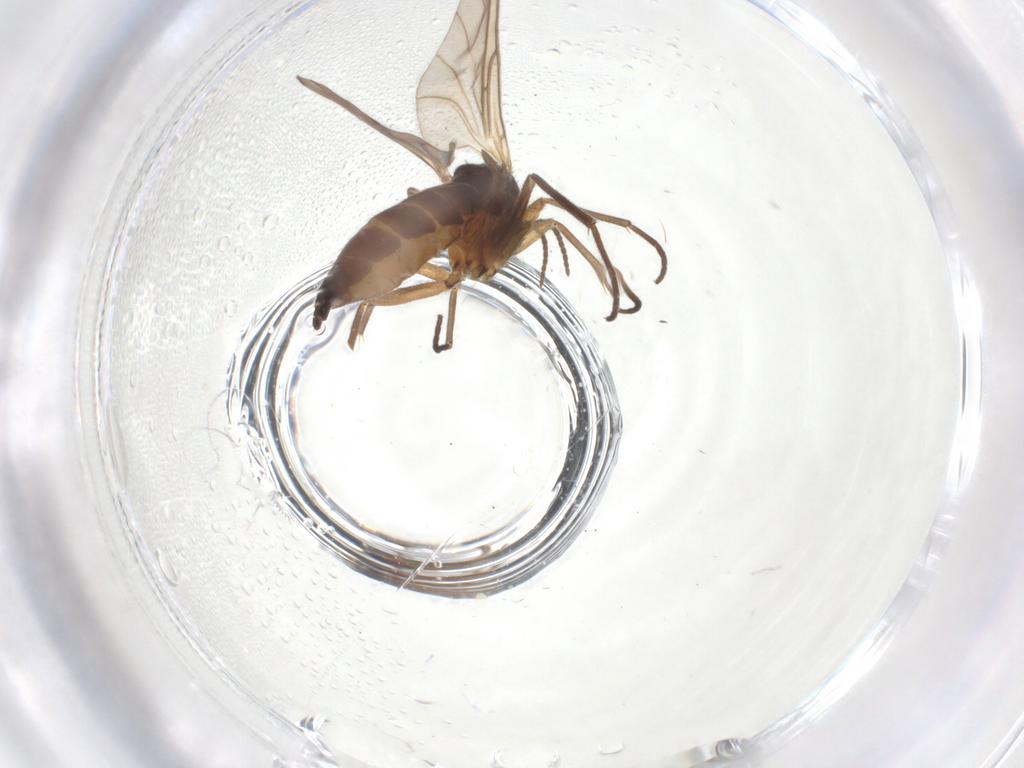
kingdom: Animalia
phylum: Arthropoda
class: Insecta
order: Diptera
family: Sciaridae
